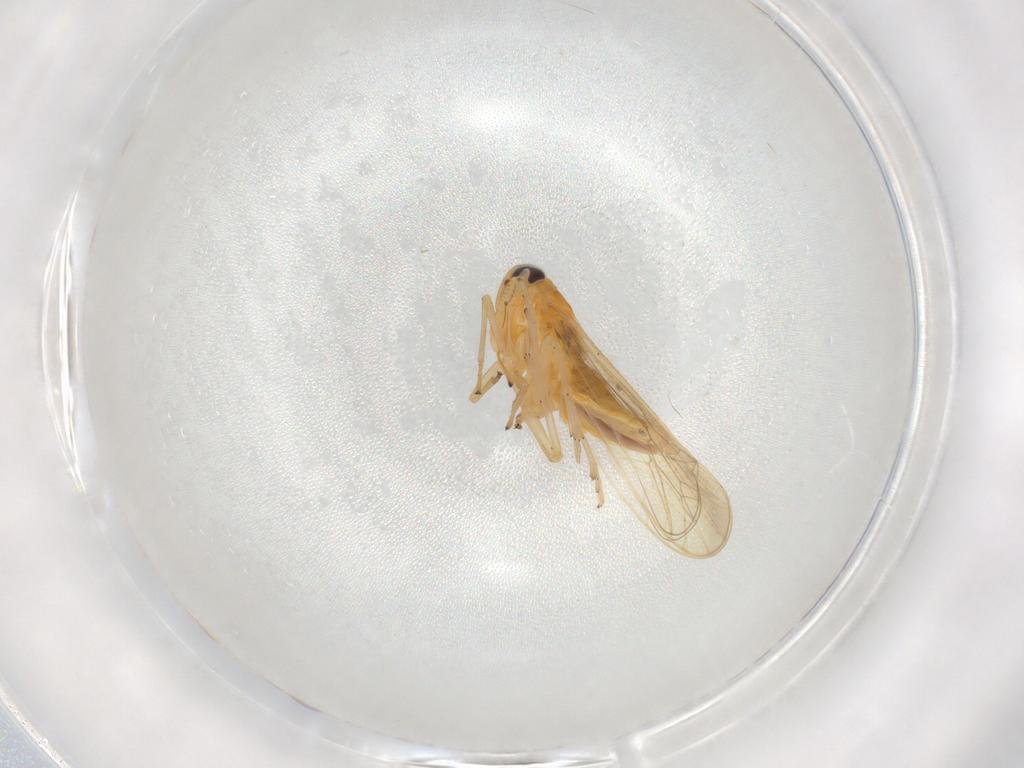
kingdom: Animalia
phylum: Arthropoda
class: Insecta
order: Hemiptera
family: Delphacidae
